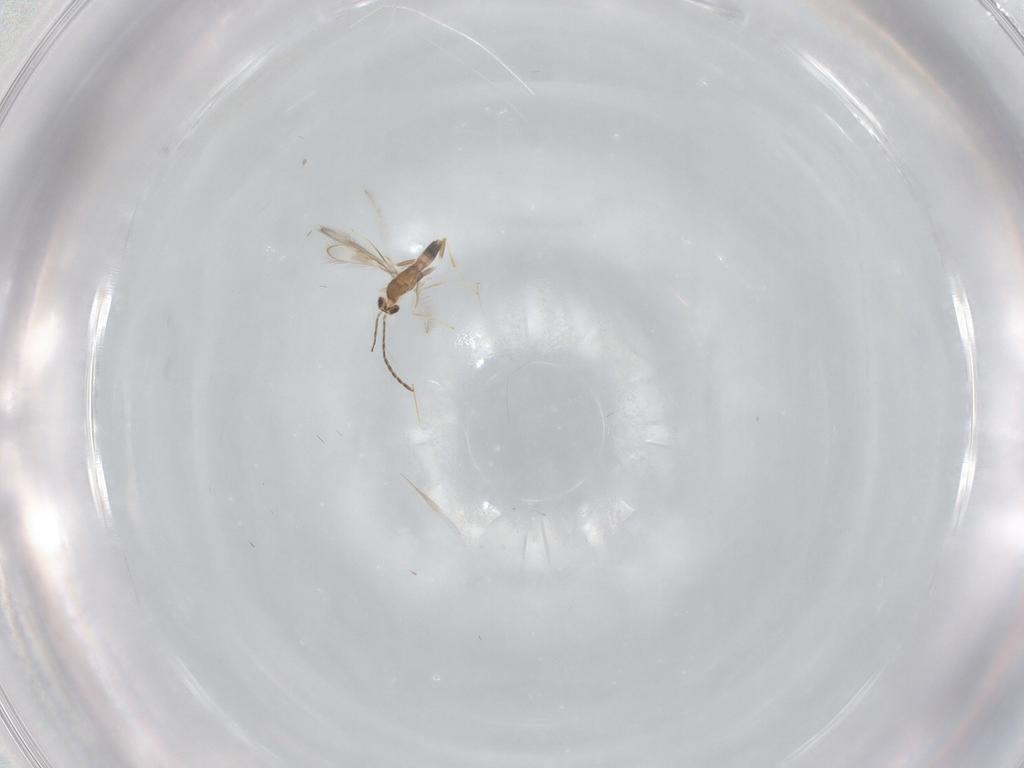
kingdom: Animalia
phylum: Arthropoda
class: Insecta
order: Hymenoptera
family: Mymaridae
